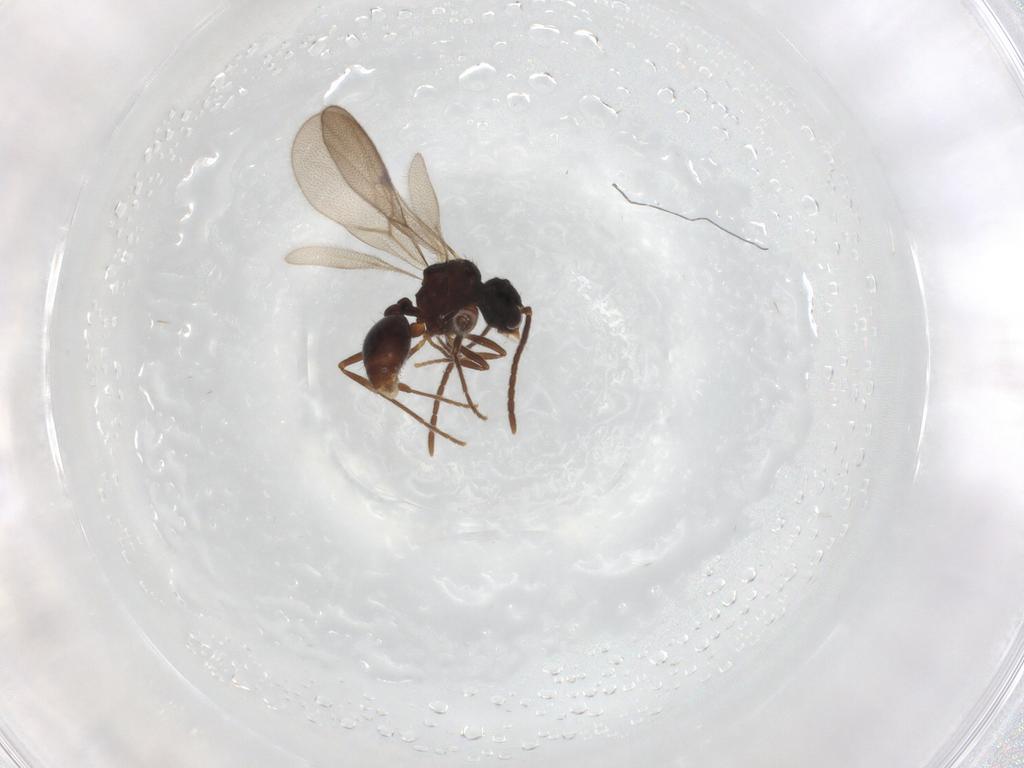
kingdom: Animalia
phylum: Arthropoda
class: Insecta
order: Hymenoptera
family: Formicidae
